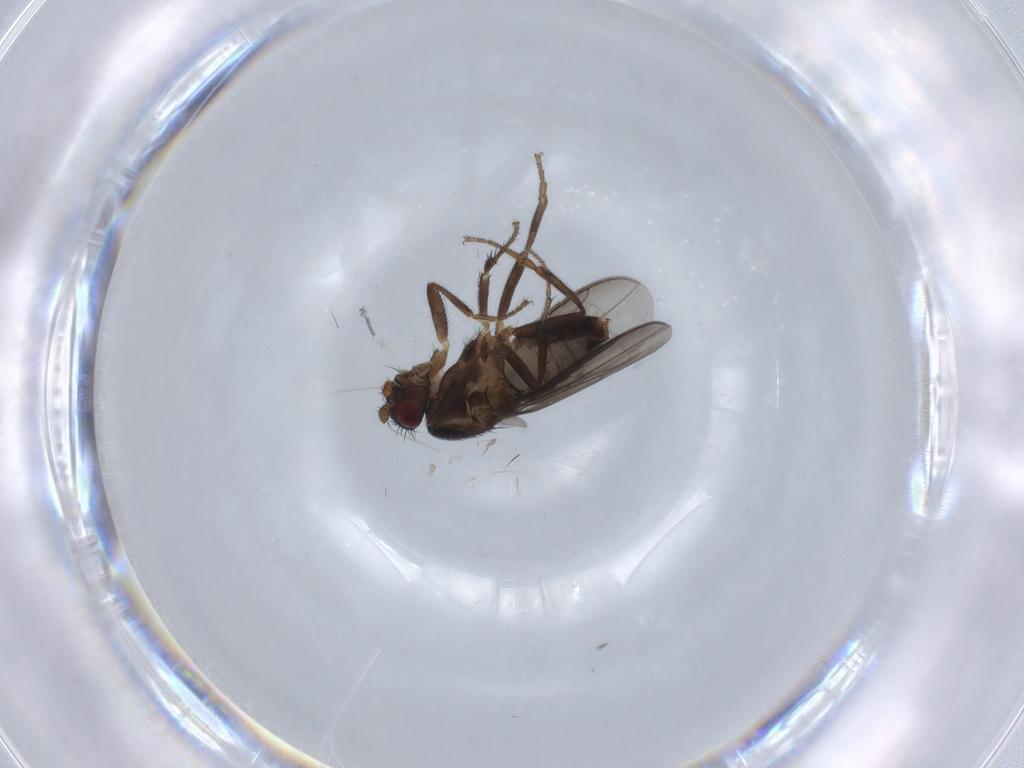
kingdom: Animalia
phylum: Arthropoda
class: Insecta
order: Diptera
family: Sphaeroceridae
